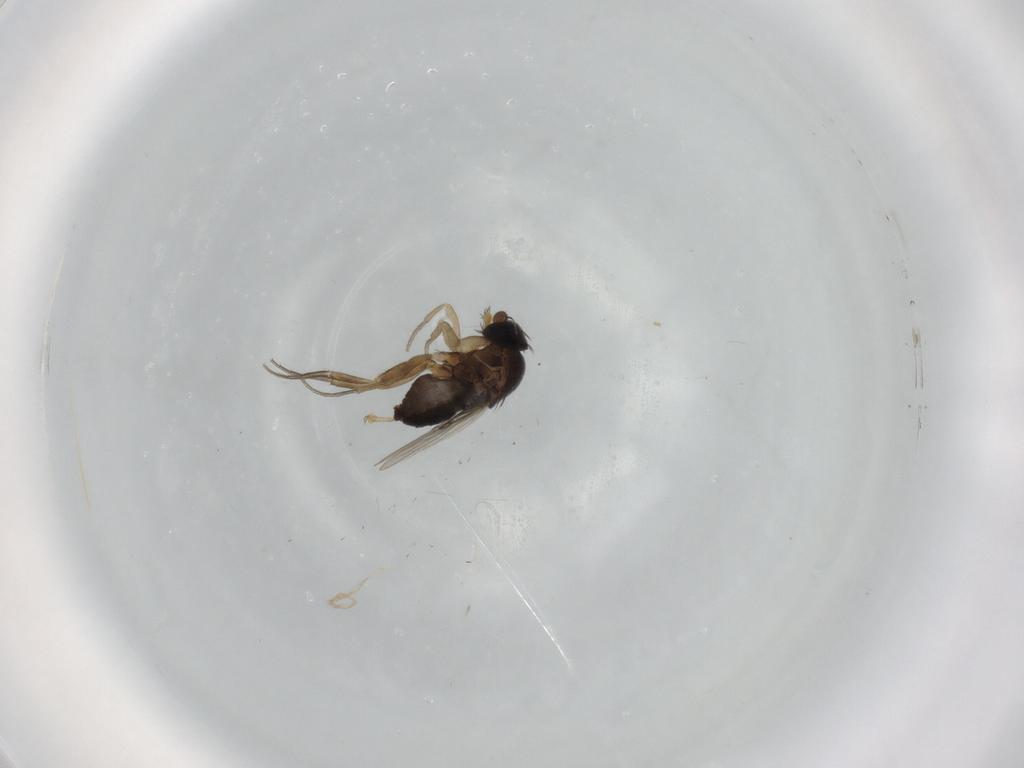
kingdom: Animalia
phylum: Arthropoda
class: Insecta
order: Diptera
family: Phoridae
